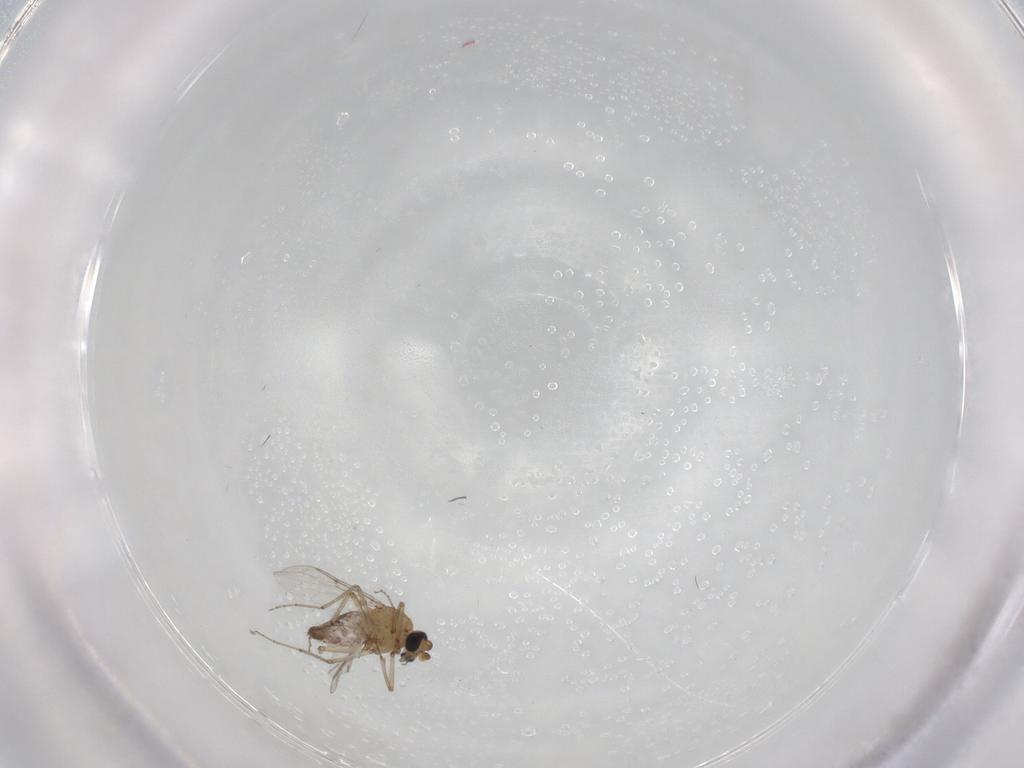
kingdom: Animalia
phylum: Arthropoda
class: Insecta
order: Diptera
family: Ceratopogonidae
